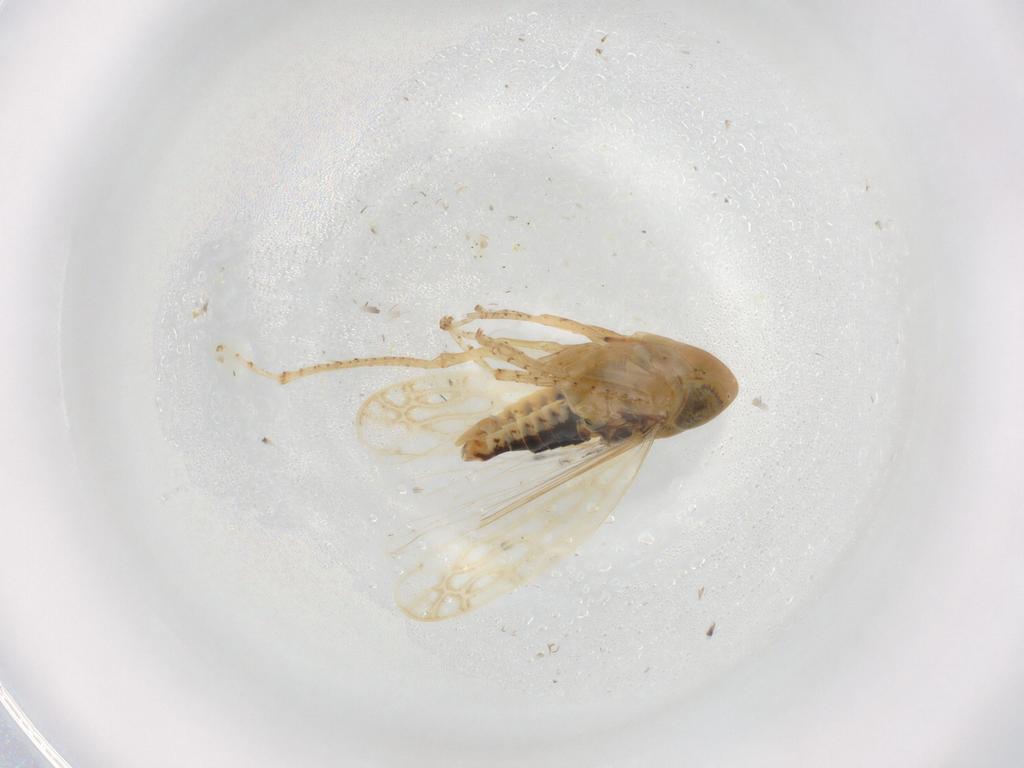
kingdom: Animalia
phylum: Arthropoda
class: Insecta
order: Hemiptera
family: Cicadellidae
